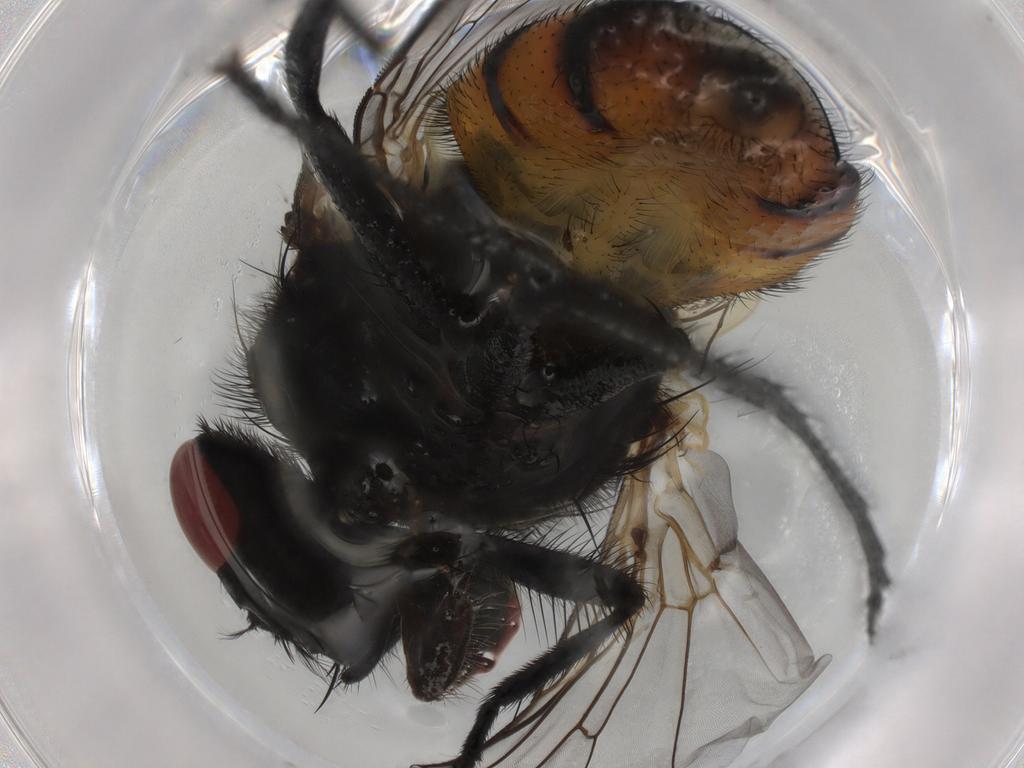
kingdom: Animalia
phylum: Arthropoda
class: Insecta
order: Diptera
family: Muscidae
